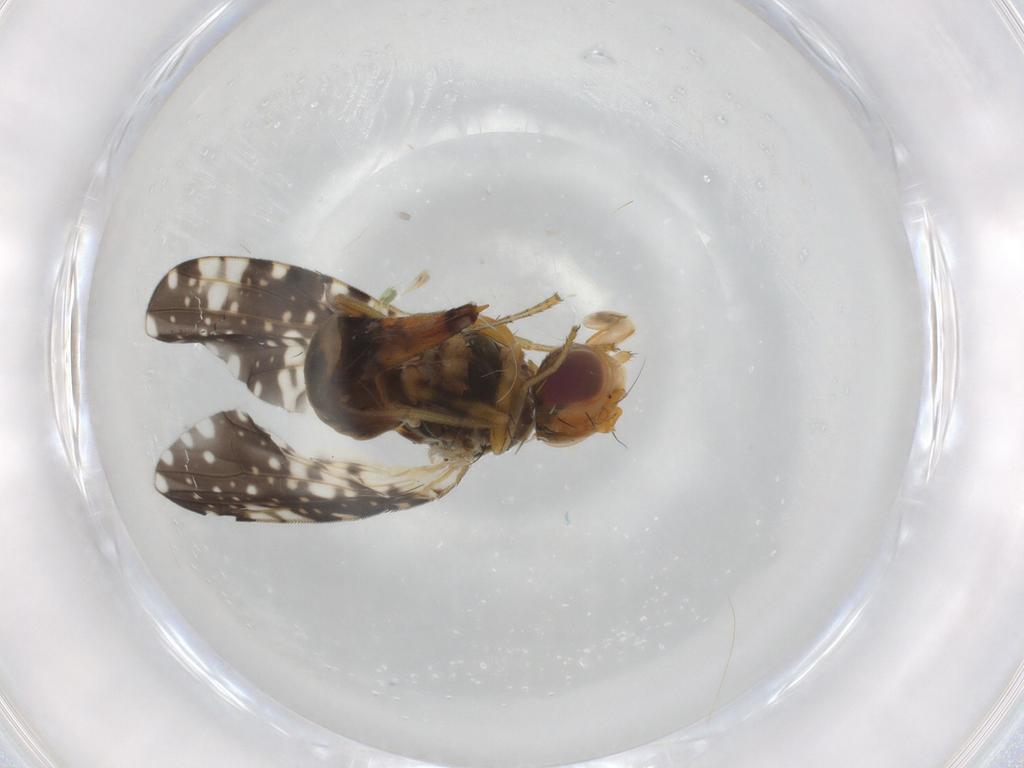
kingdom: Animalia
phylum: Arthropoda
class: Insecta
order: Diptera
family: Tephritidae
